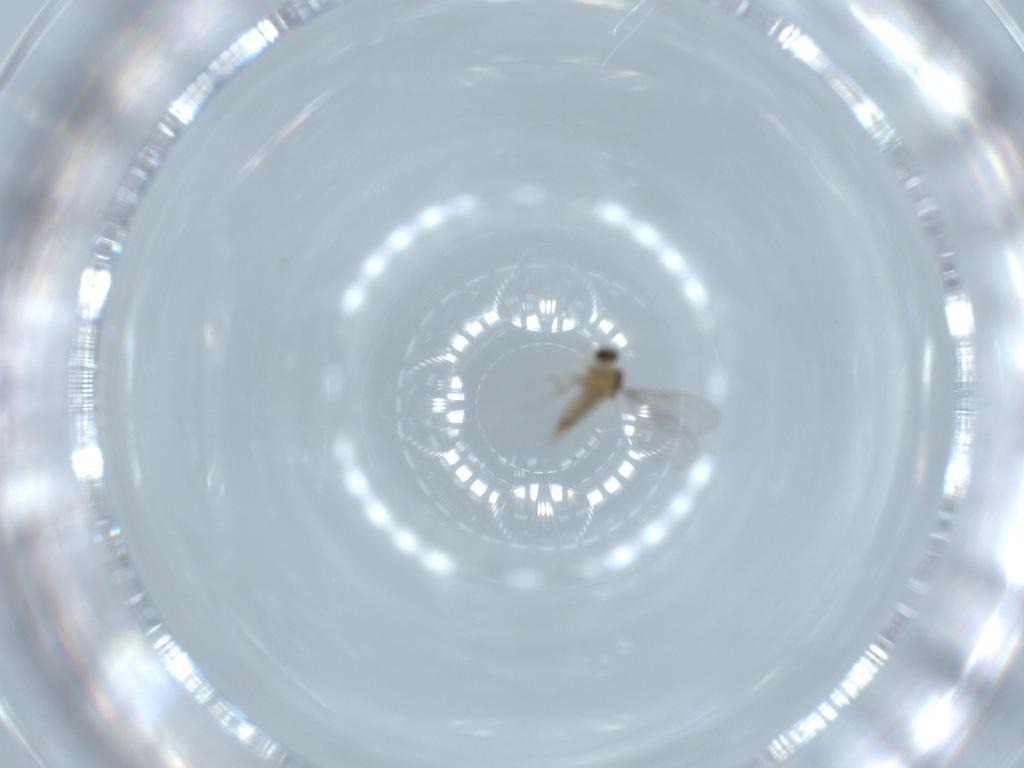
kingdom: Animalia
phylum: Arthropoda
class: Insecta
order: Diptera
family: Cecidomyiidae
